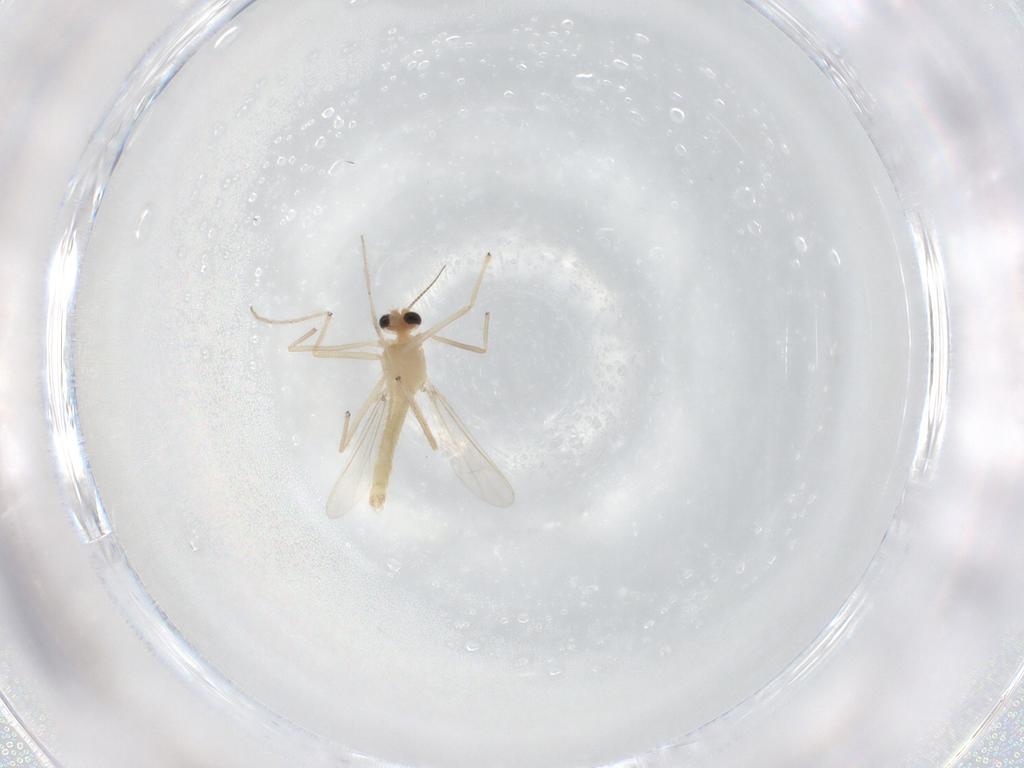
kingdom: Animalia
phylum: Arthropoda
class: Insecta
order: Diptera
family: Chironomidae
